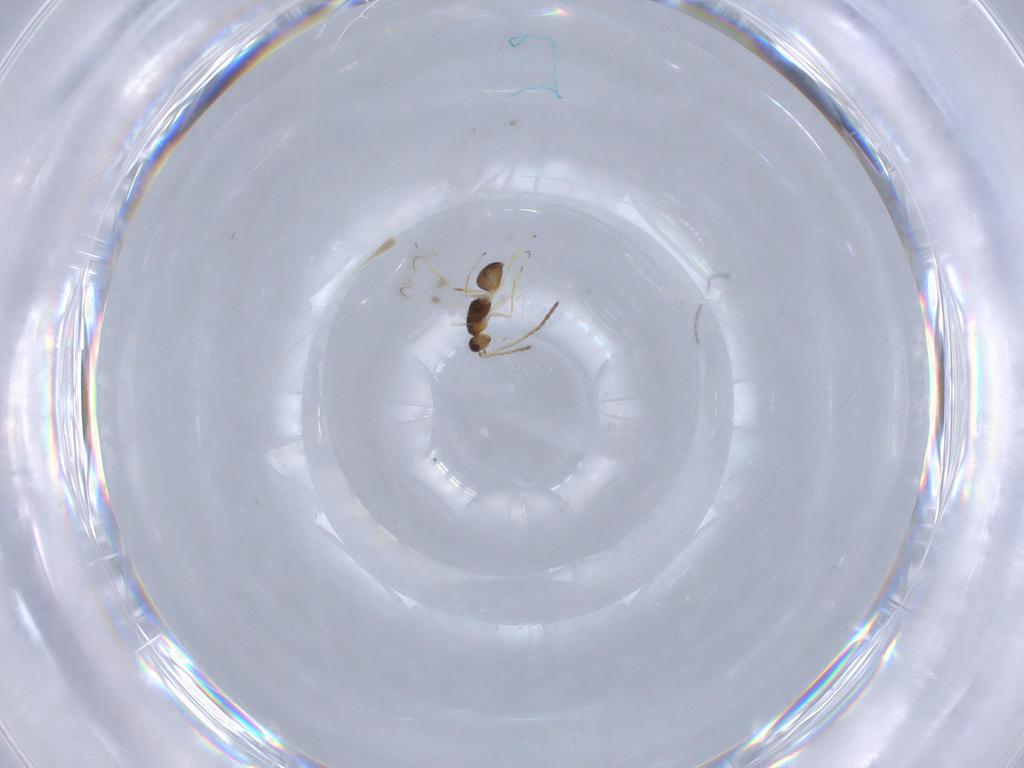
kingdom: Animalia
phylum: Arthropoda
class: Insecta
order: Hymenoptera
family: Mymaridae
